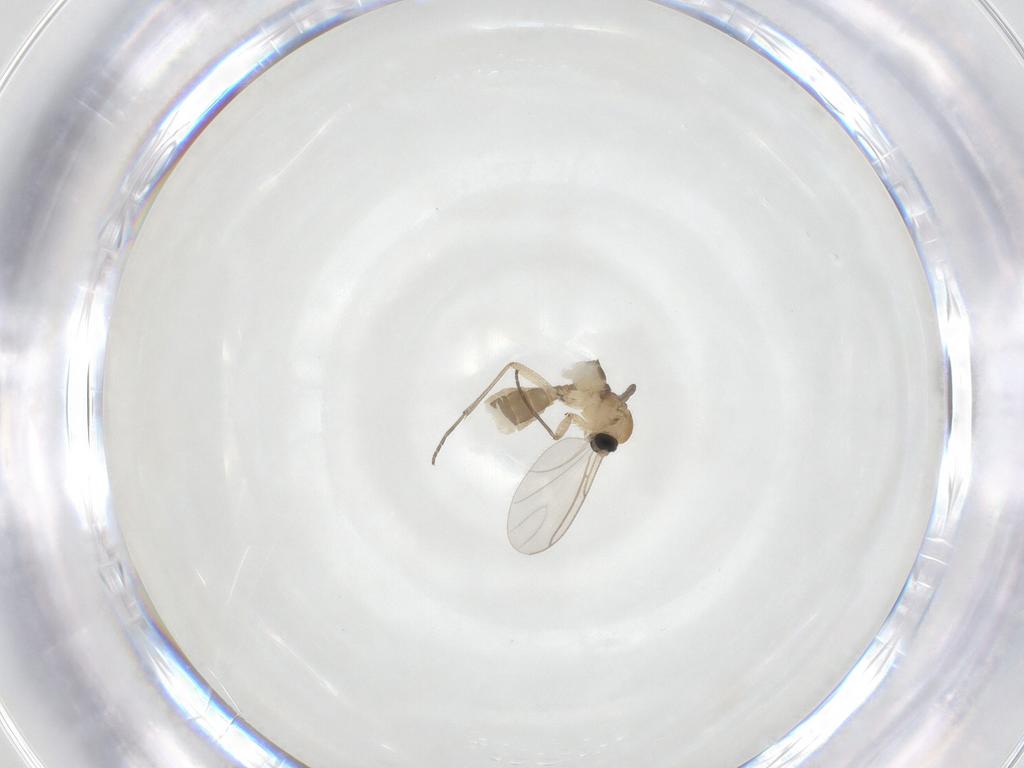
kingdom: Animalia
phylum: Arthropoda
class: Insecta
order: Diptera
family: Sciaridae
